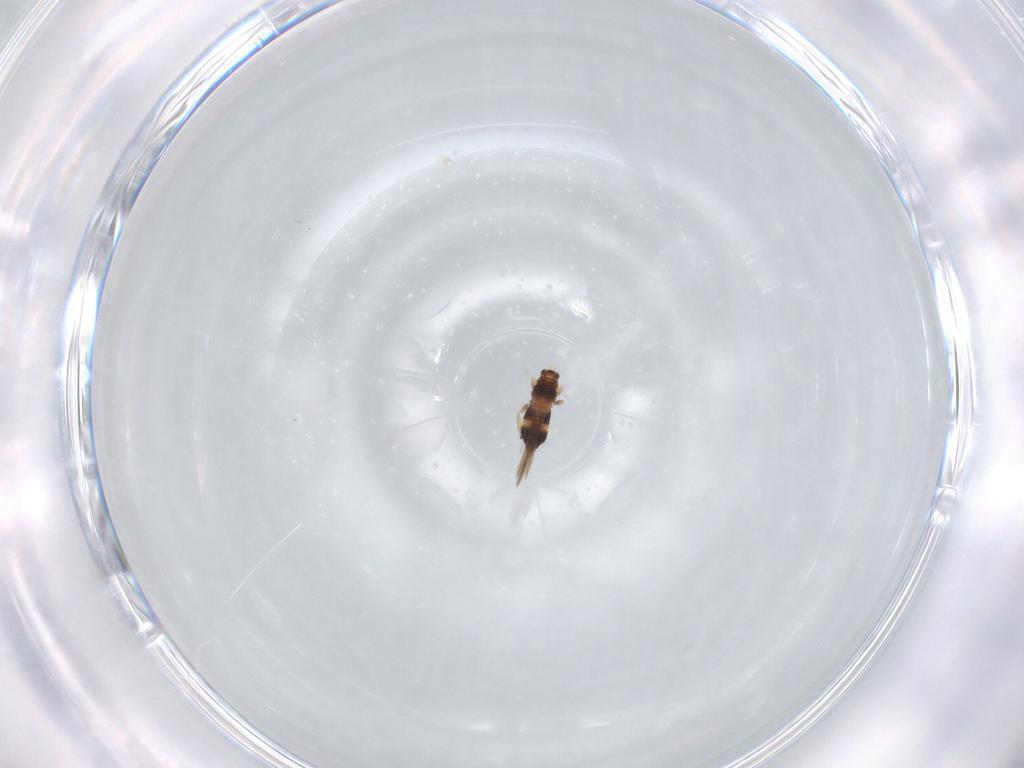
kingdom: Animalia
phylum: Arthropoda
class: Insecta
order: Thysanoptera
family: Thripidae
